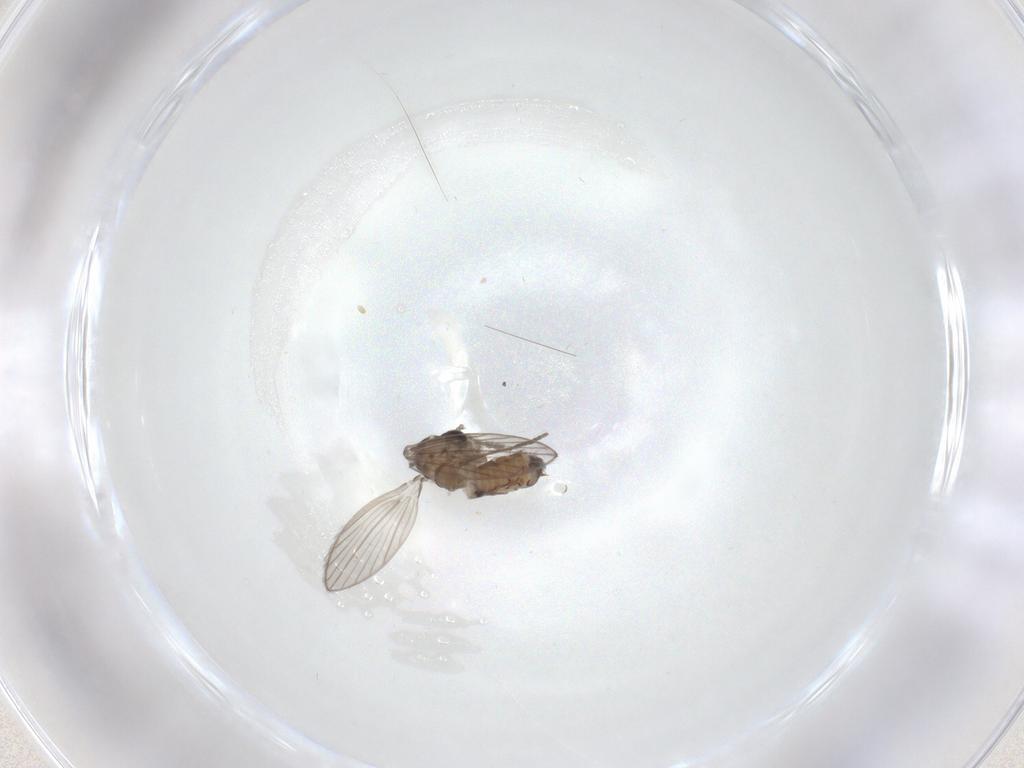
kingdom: Animalia
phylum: Arthropoda
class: Insecta
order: Diptera
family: Psychodidae
